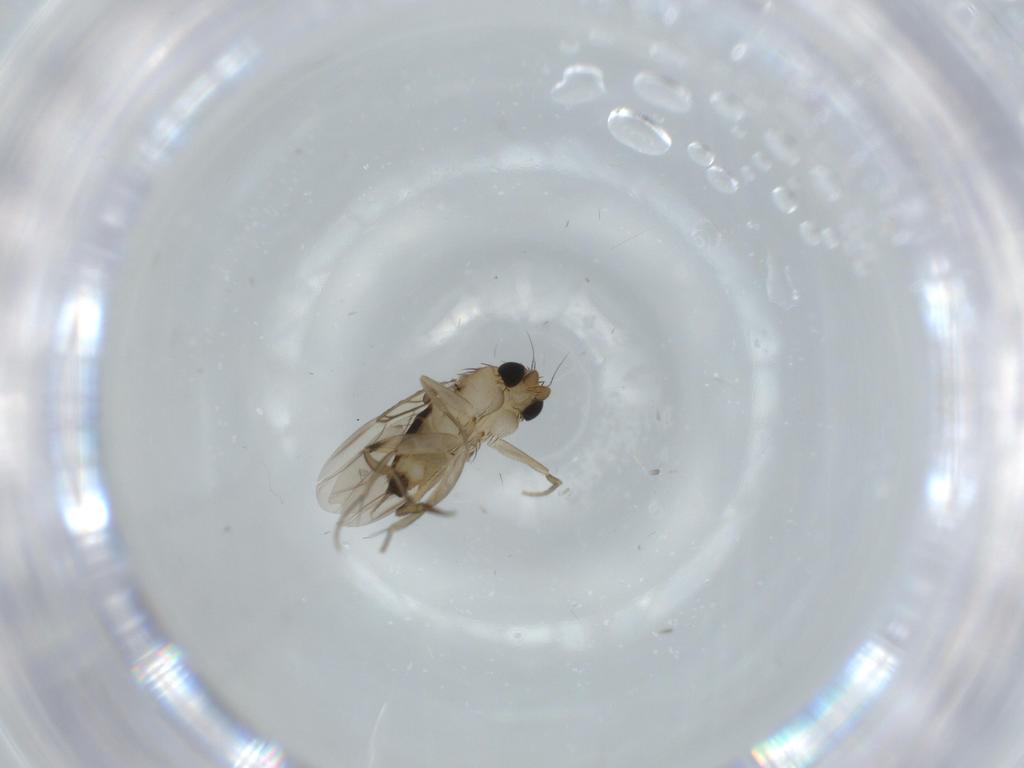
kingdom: Animalia
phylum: Arthropoda
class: Insecta
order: Diptera
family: Phoridae
